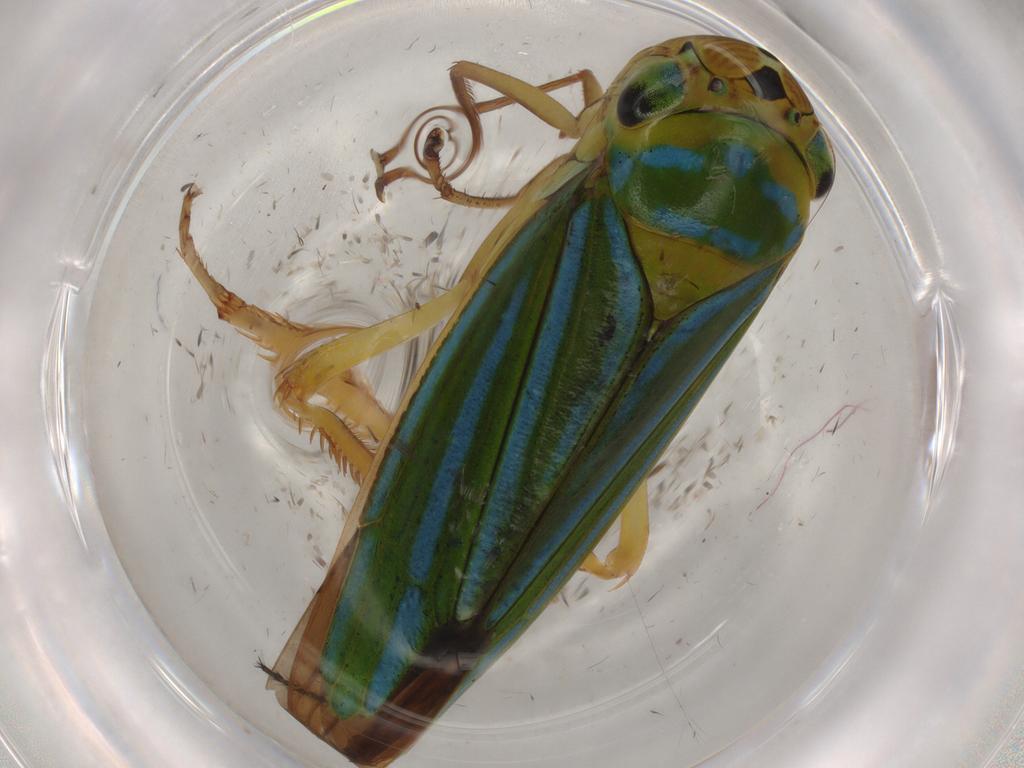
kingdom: Animalia
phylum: Arthropoda
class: Insecta
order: Hemiptera
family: Cicadellidae
